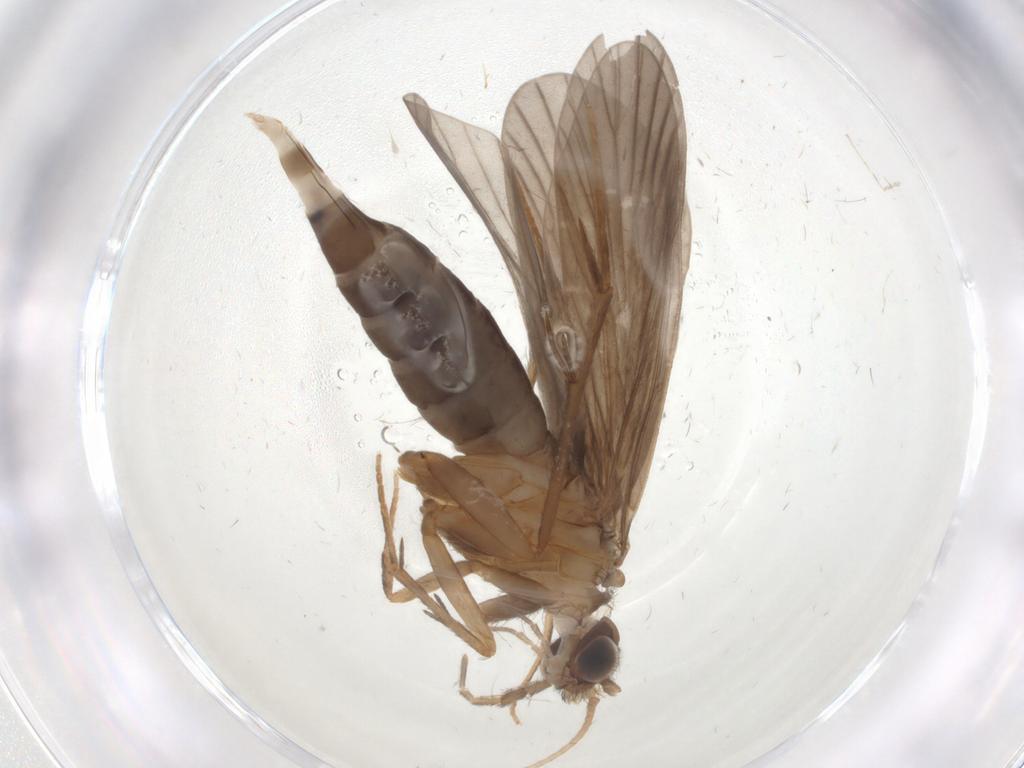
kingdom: Animalia
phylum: Arthropoda
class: Insecta
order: Trichoptera
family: Philopotamidae
